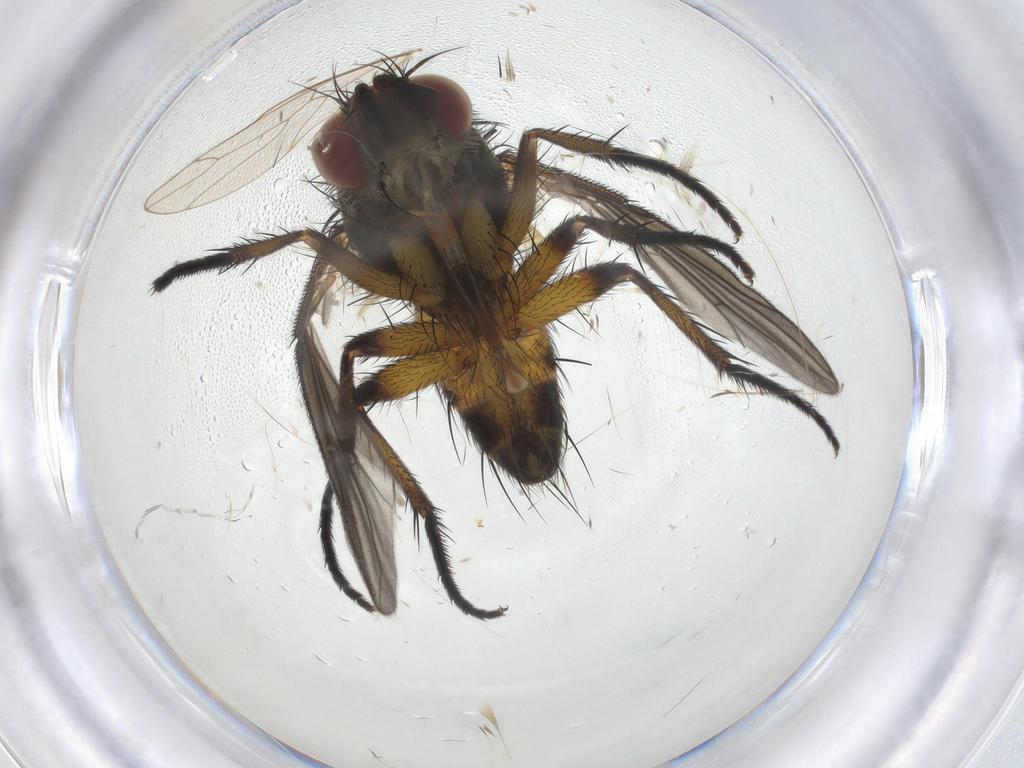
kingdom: Animalia
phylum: Arthropoda
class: Insecta
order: Diptera
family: Tachinidae
